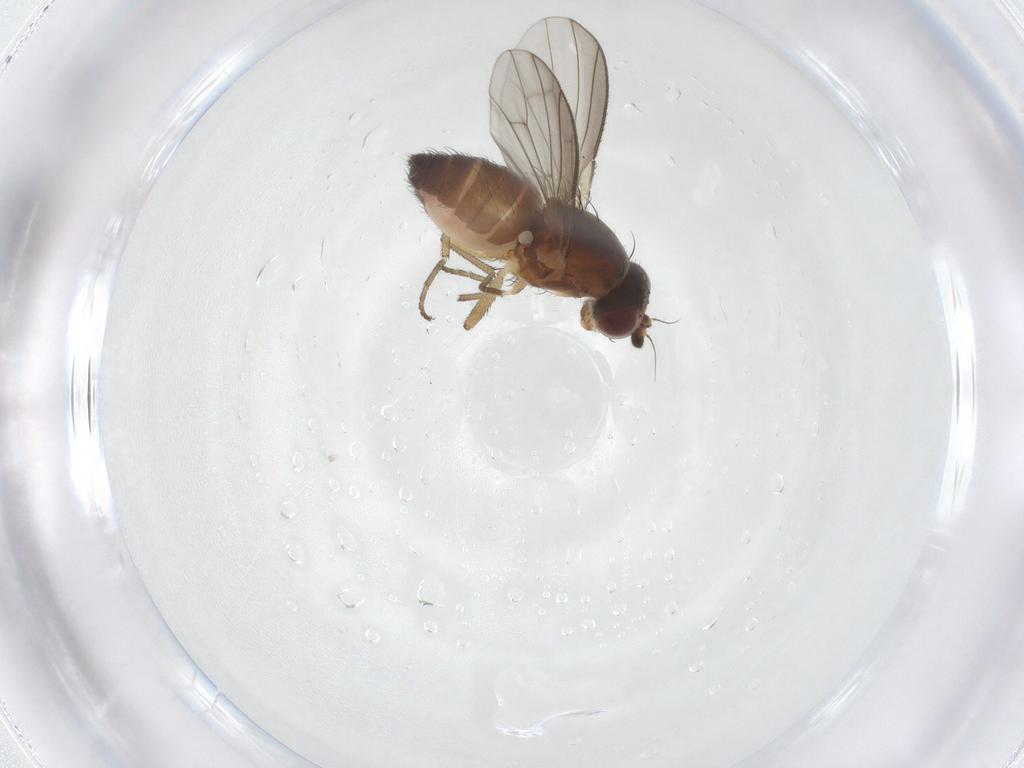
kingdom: Animalia
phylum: Arthropoda
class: Insecta
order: Diptera
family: Heleomyzidae
